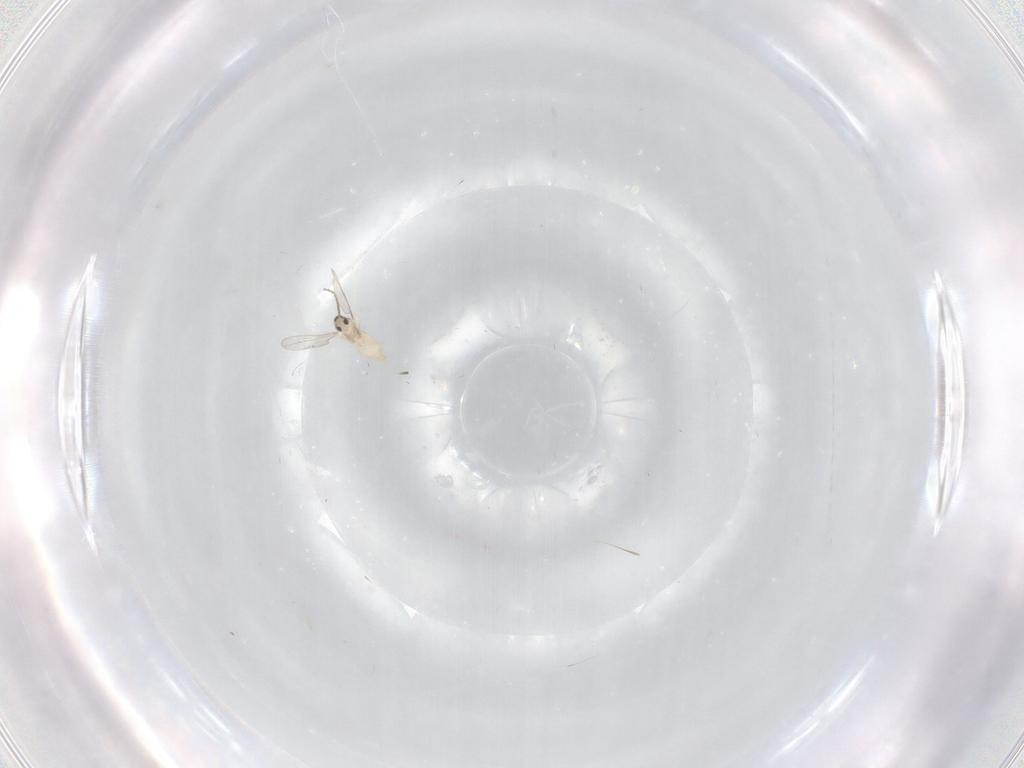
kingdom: Animalia
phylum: Arthropoda
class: Insecta
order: Diptera
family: Cecidomyiidae
